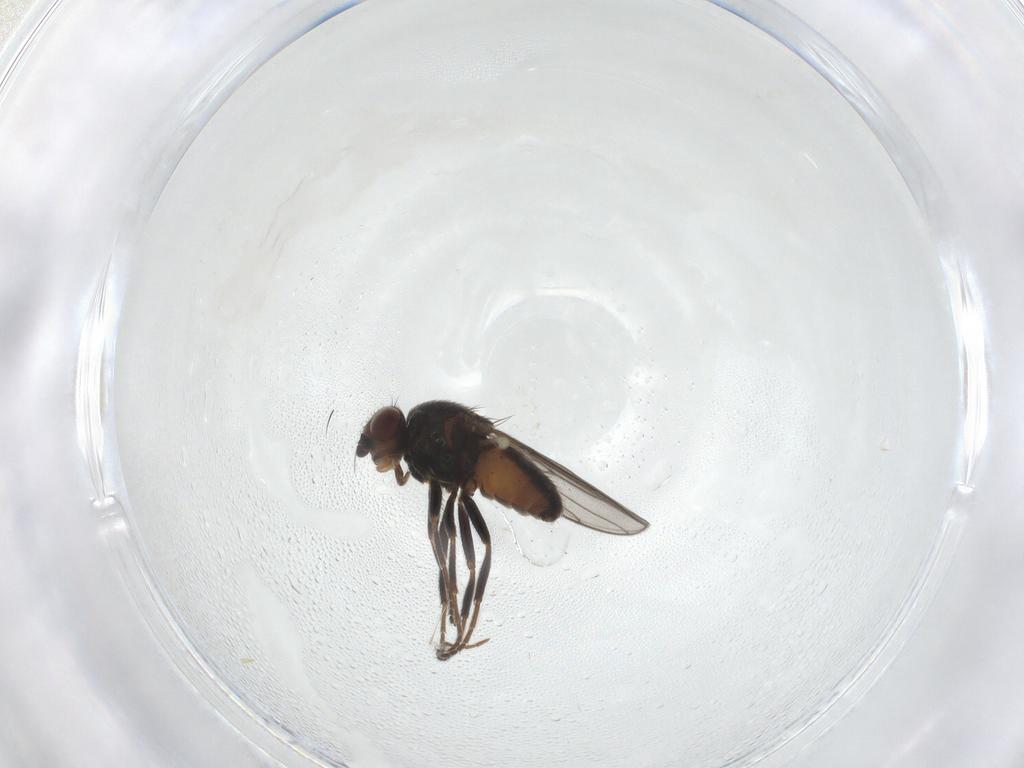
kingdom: Animalia
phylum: Arthropoda
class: Insecta
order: Diptera
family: Chloropidae
